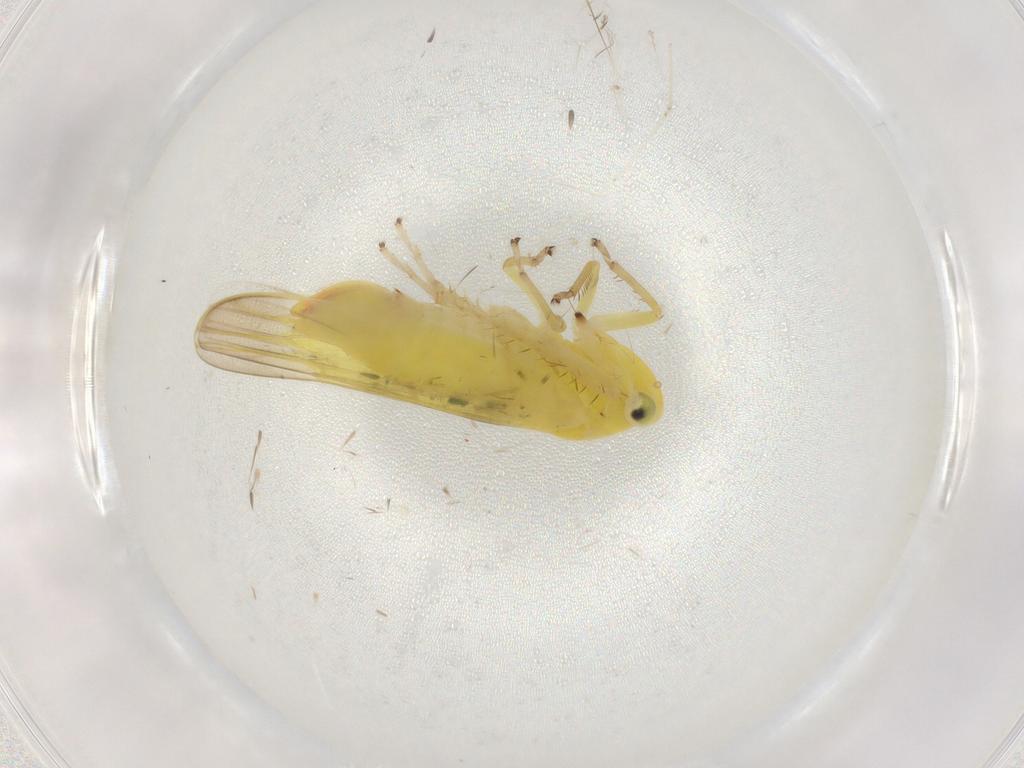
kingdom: Animalia
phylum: Arthropoda
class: Insecta
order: Hemiptera
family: Cicadellidae
